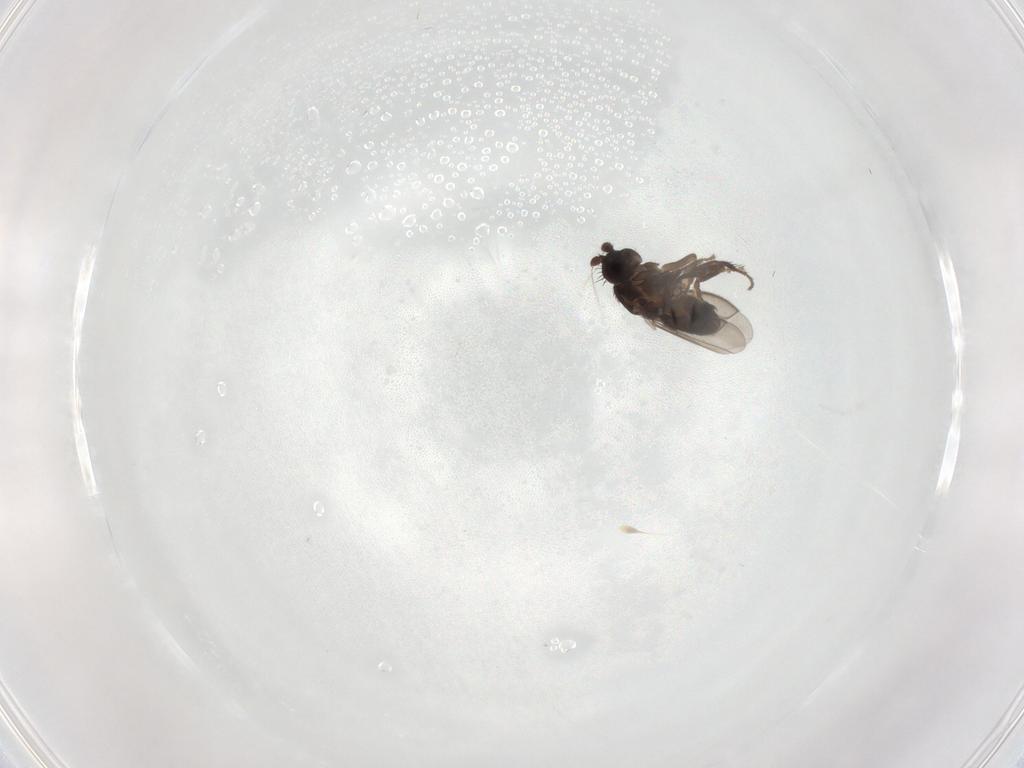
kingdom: Animalia
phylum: Arthropoda
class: Insecta
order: Diptera
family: Sphaeroceridae
